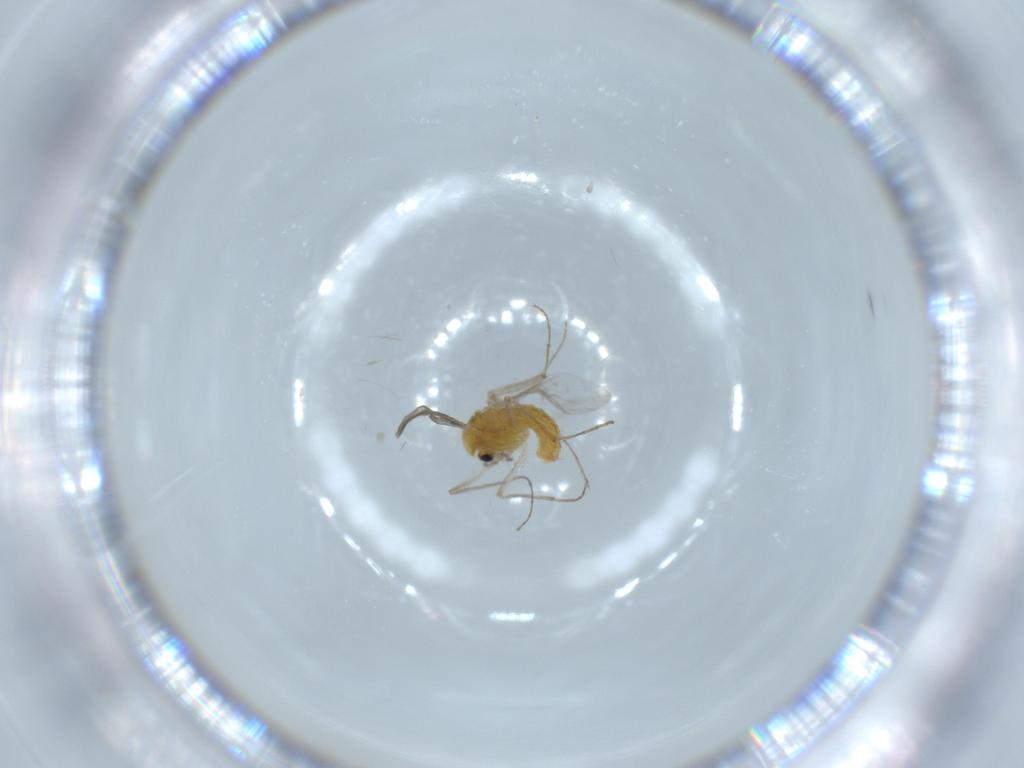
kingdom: Animalia
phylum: Arthropoda
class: Insecta
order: Diptera
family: Chironomidae
